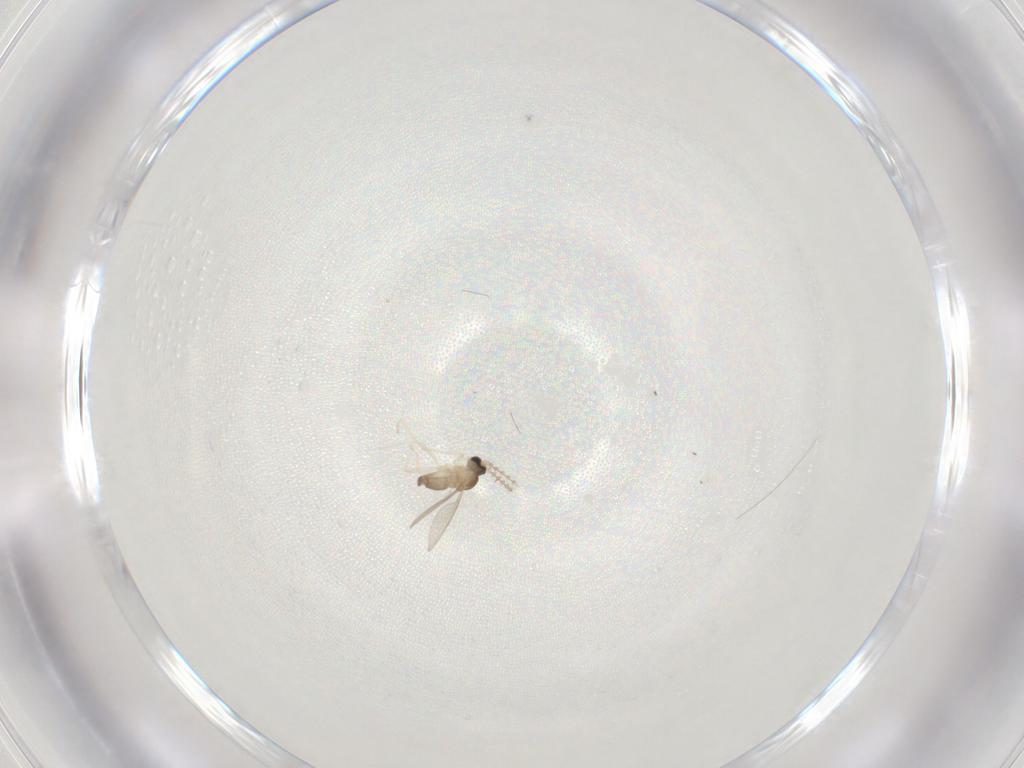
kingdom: Animalia
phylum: Arthropoda
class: Insecta
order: Diptera
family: Cecidomyiidae
